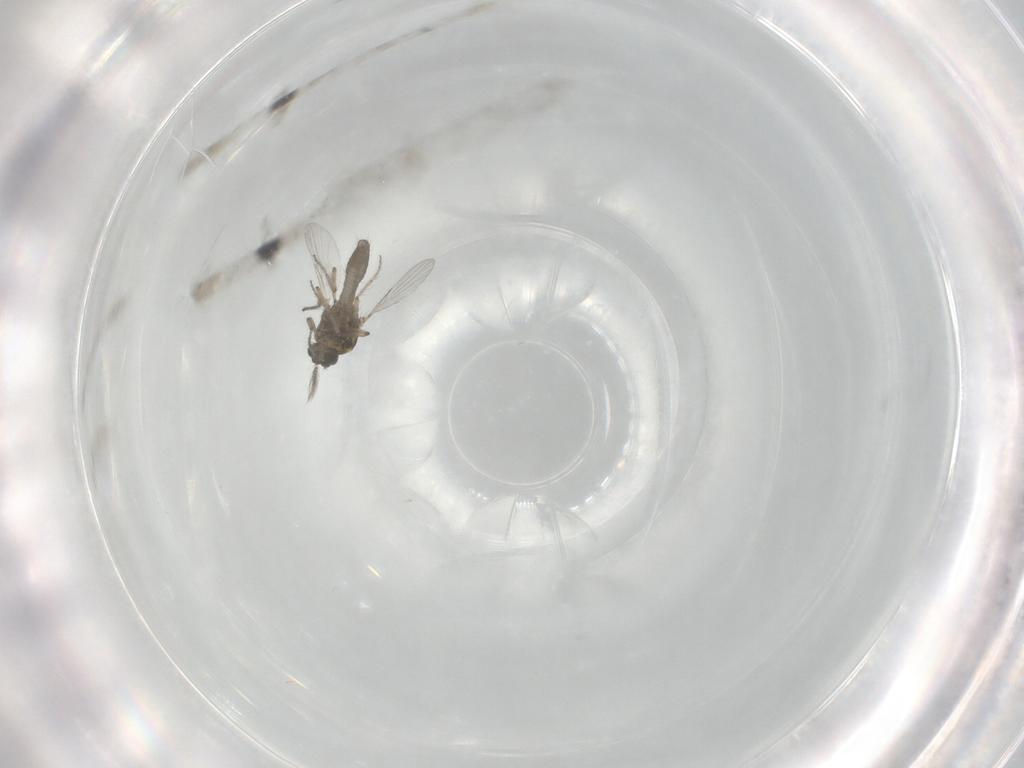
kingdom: Animalia
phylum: Arthropoda
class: Insecta
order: Diptera
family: Ceratopogonidae
